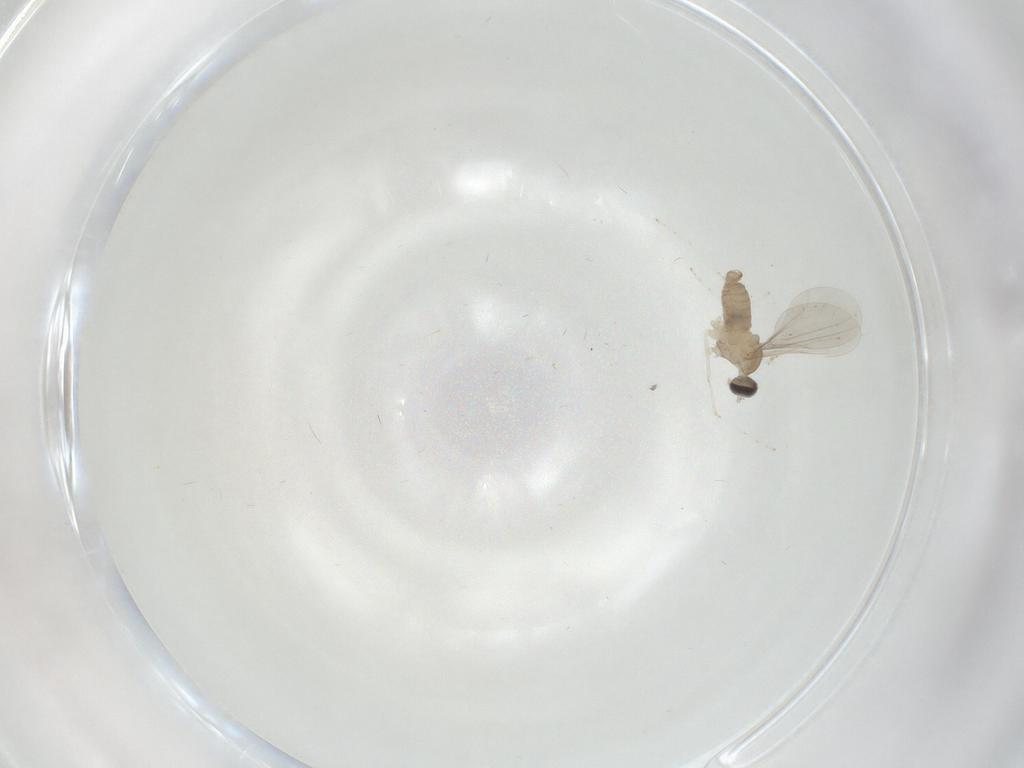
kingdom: Animalia
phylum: Arthropoda
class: Insecta
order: Diptera
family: Cecidomyiidae
